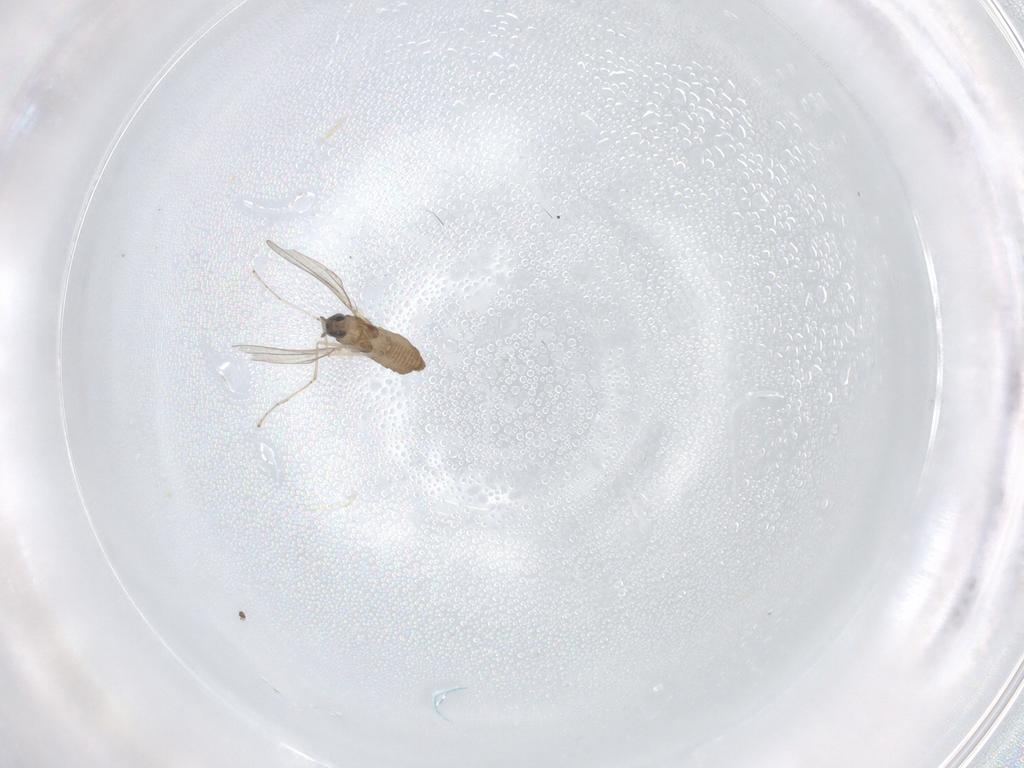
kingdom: Animalia
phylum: Arthropoda
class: Insecta
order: Diptera
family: Cecidomyiidae
